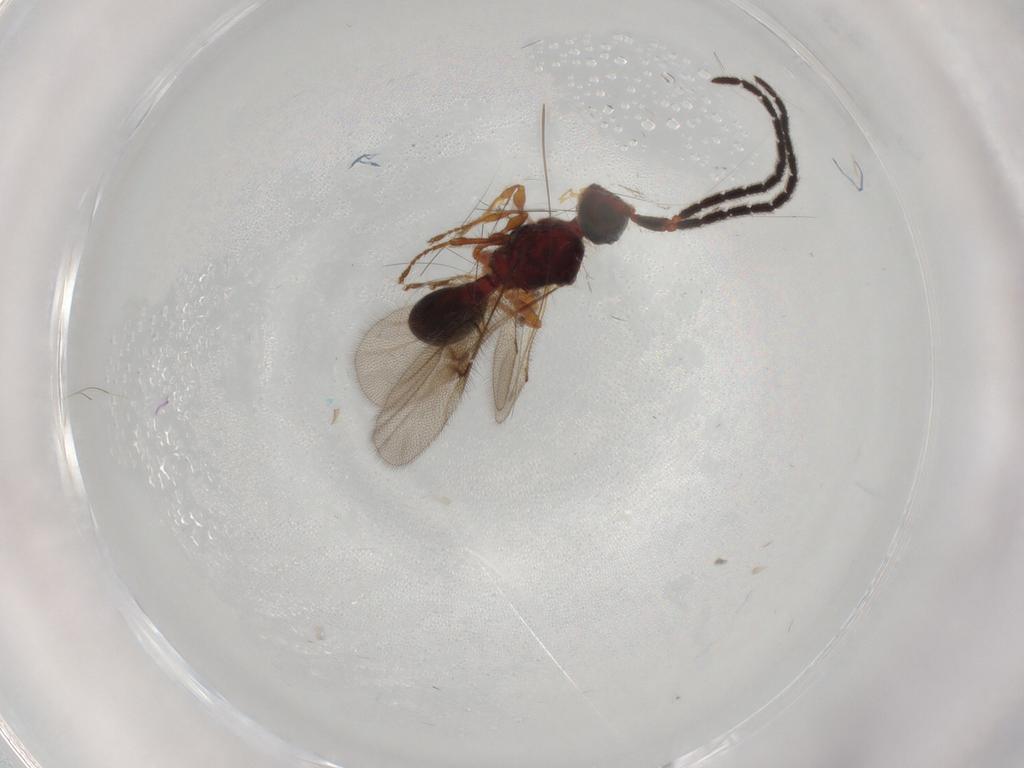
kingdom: Animalia
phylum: Arthropoda
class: Insecta
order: Hymenoptera
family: Diapriidae
